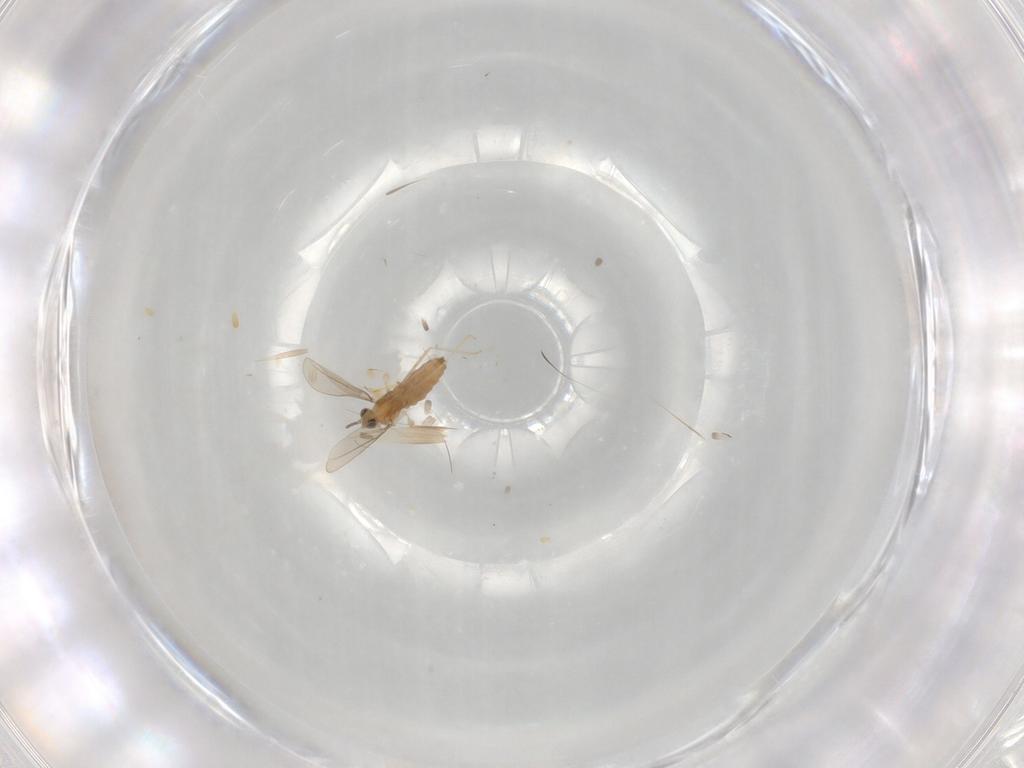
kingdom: Animalia
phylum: Arthropoda
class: Insecta
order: Diptera
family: Cecidomyiidae
